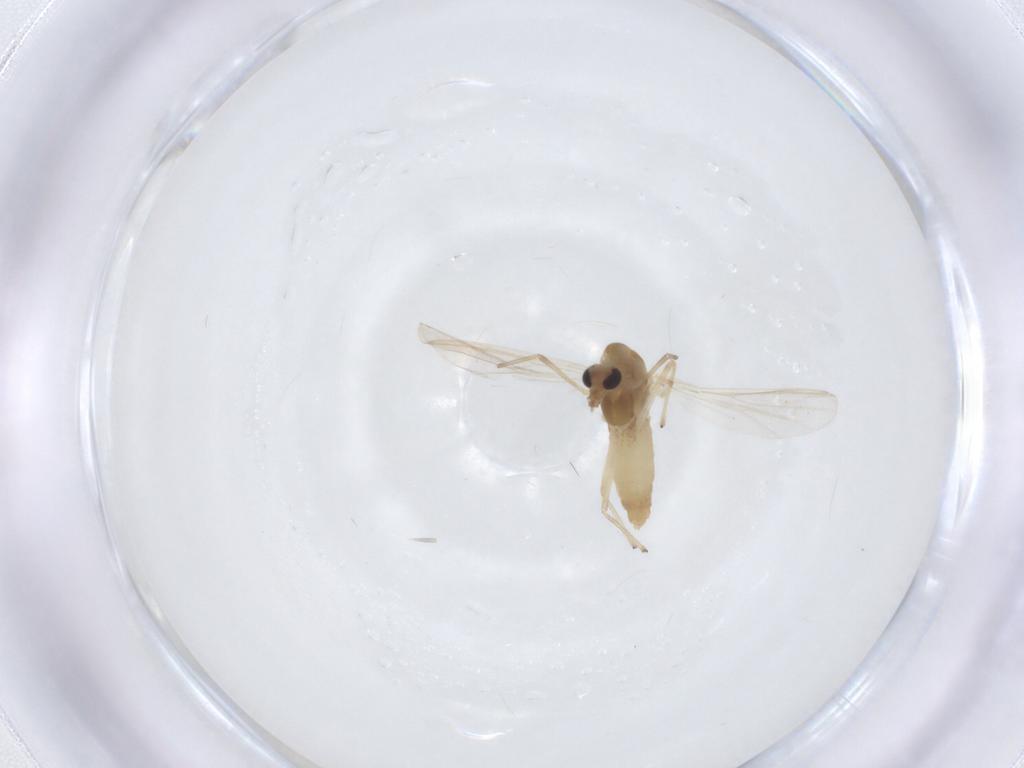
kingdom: Animalia
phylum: Arthropoda
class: Insecta
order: Diptera
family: Chironomidae
